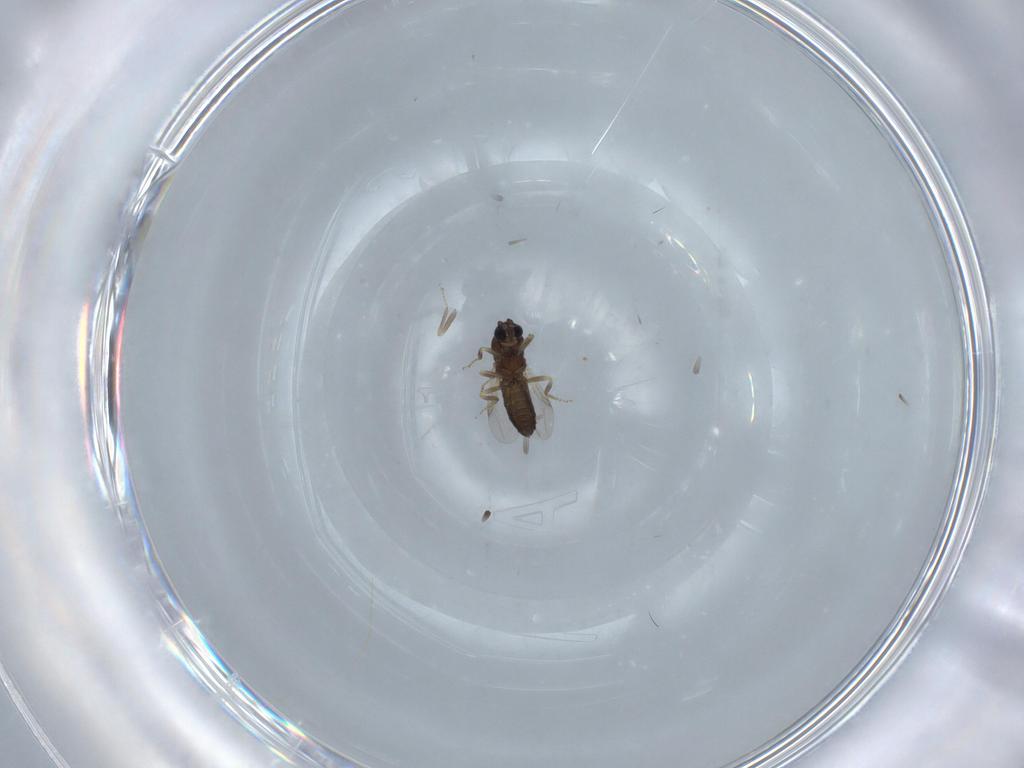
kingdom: Animalia
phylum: Arthropoda
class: Insecta
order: Diptera
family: Ceratopogonidae
